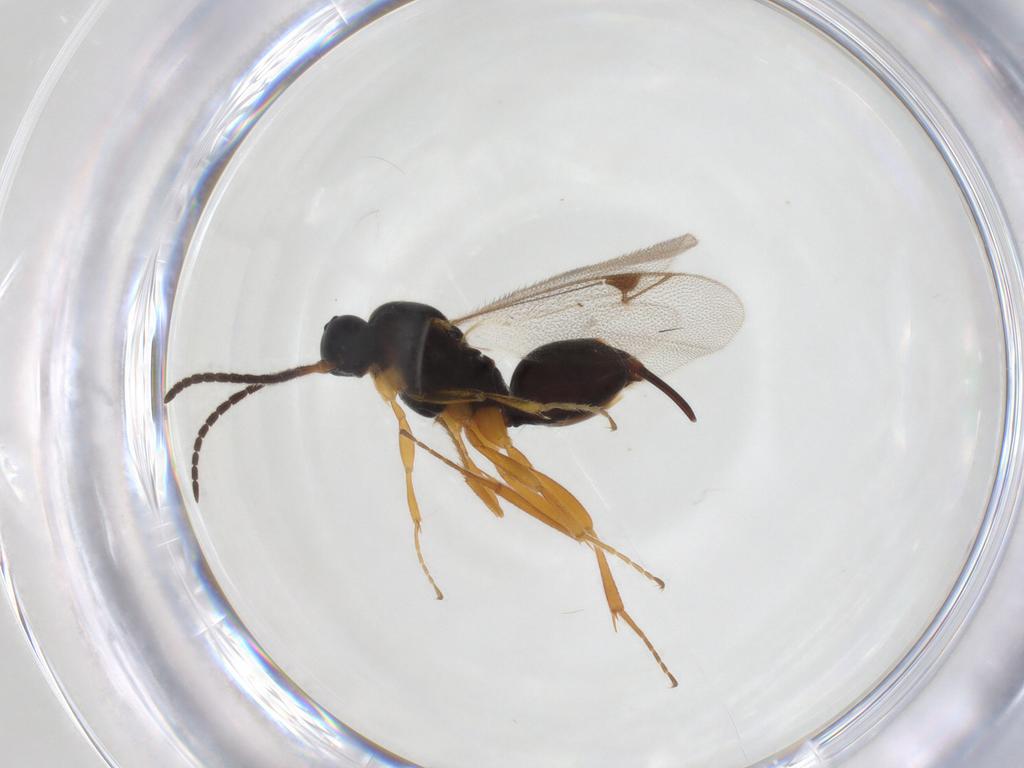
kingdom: Animalia
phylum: Arthropoda
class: Insecta
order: Hymenoptera
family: Proctotrupidae
